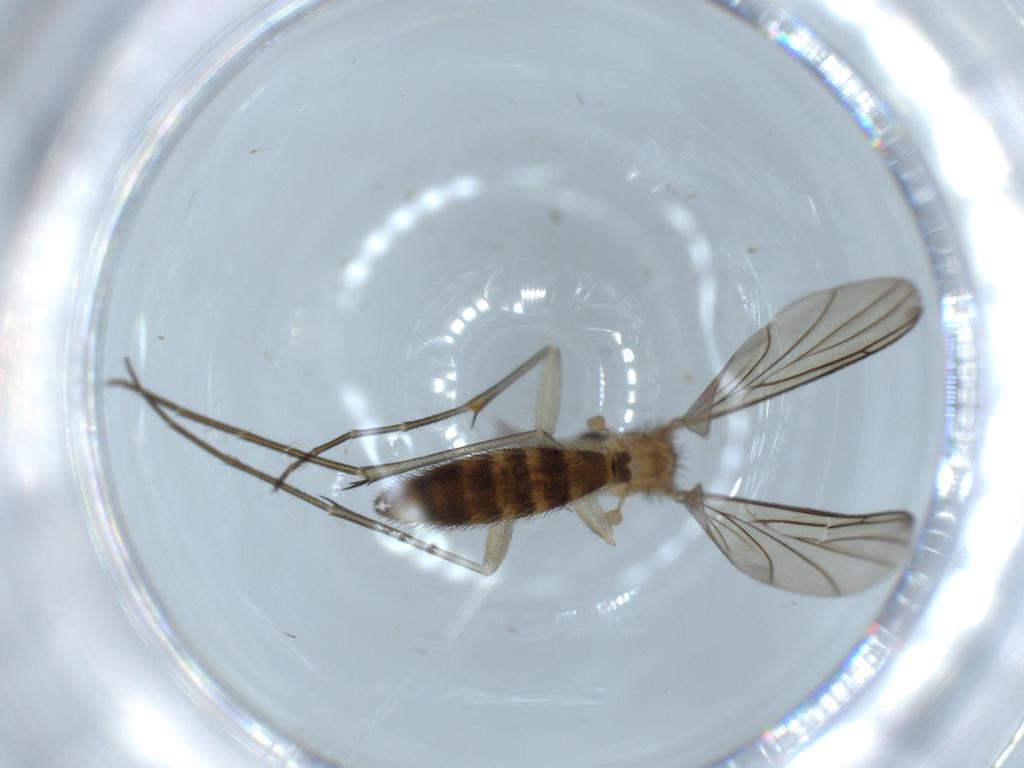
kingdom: Animalia
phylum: Arthropoda
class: Insecta
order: Diptera
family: Keroplatidae
